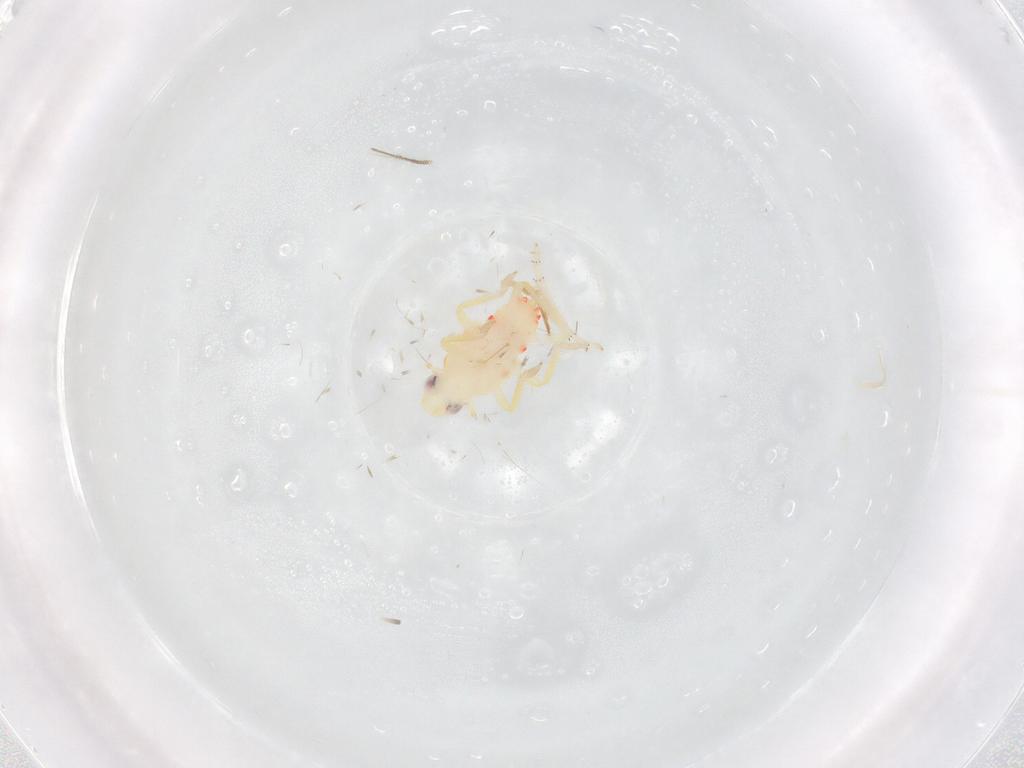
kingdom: Animalia
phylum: Arthropoda
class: Insecta
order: Hemiptera
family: Tropiduchidae
